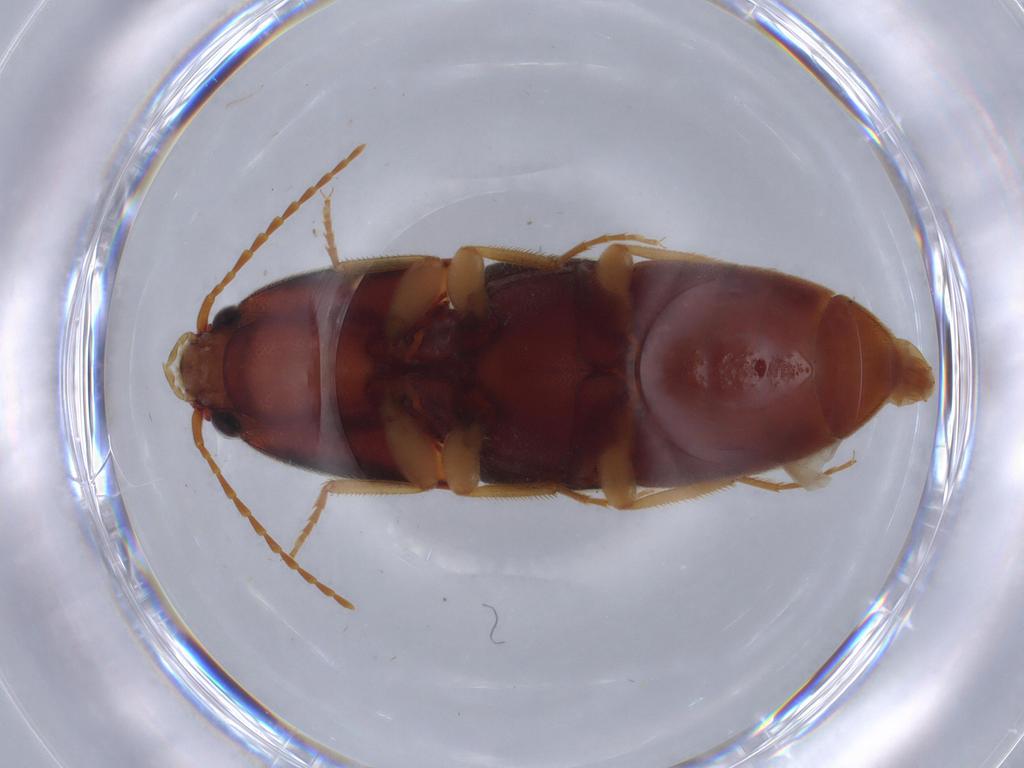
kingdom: Animalia
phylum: Arthropoda
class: Insecta
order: Coleoptera
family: Elateridae
